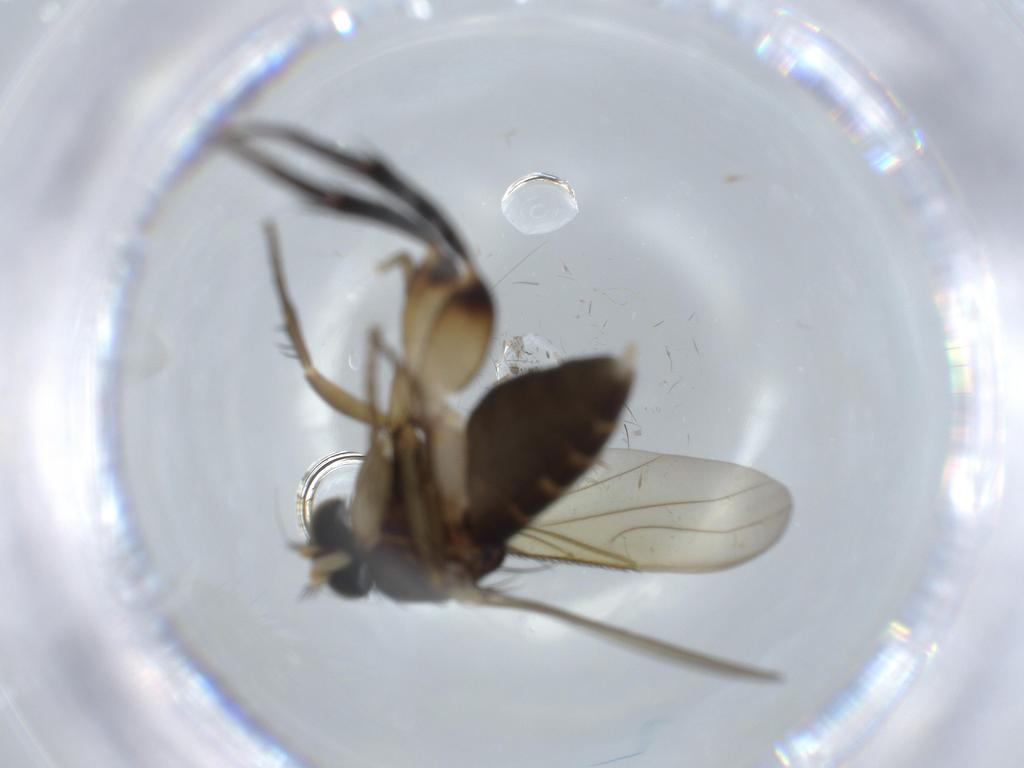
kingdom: Animalia
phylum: Arthropoda
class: Insecta
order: Diptera
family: Phoridae
